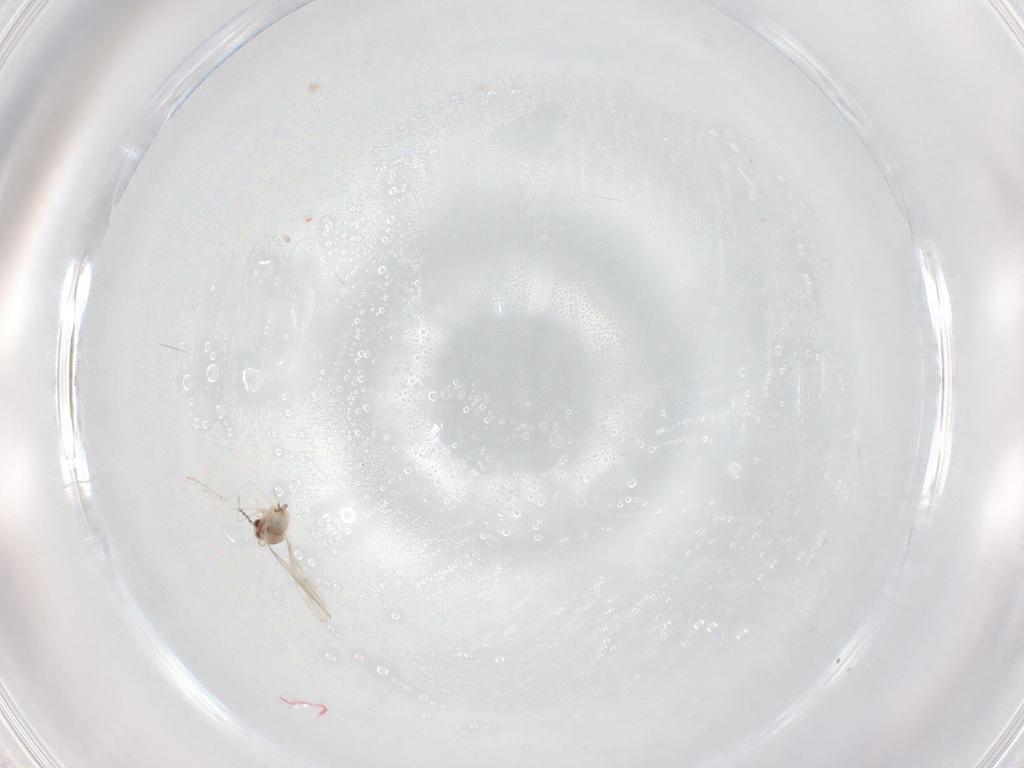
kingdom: Animalia
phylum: Arthropoda
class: Insecta
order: Diptera
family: Cecidomyiidae
